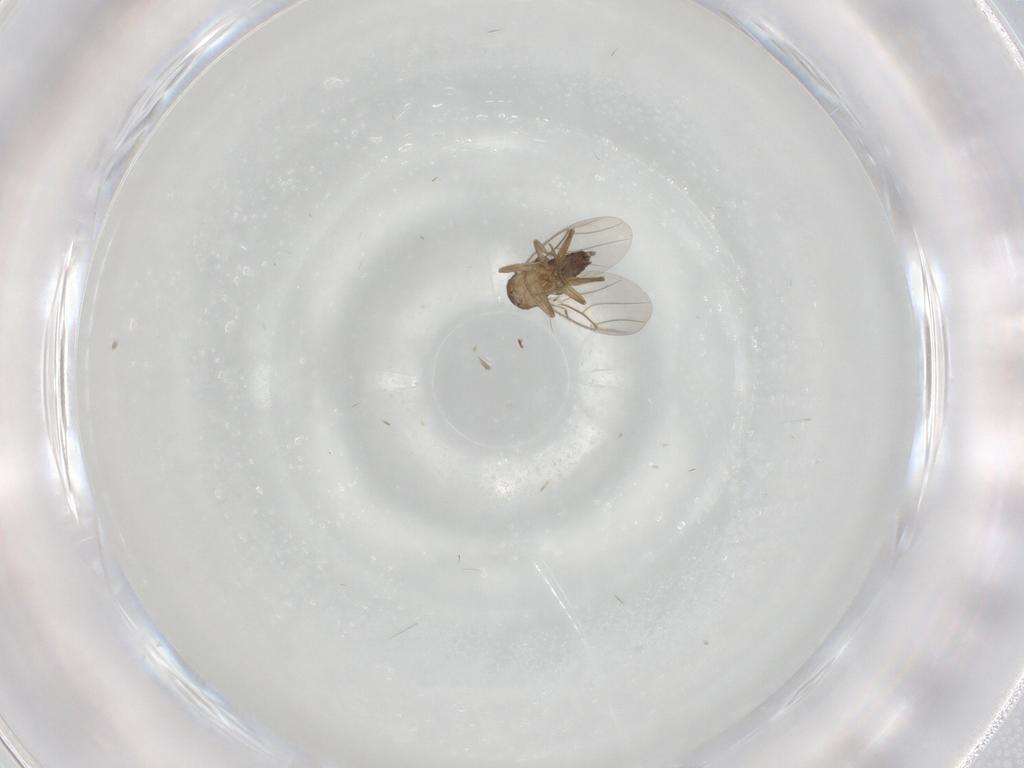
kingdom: Animalia
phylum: Arthropoda
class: Insecta
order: Diptera
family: Phoridae
